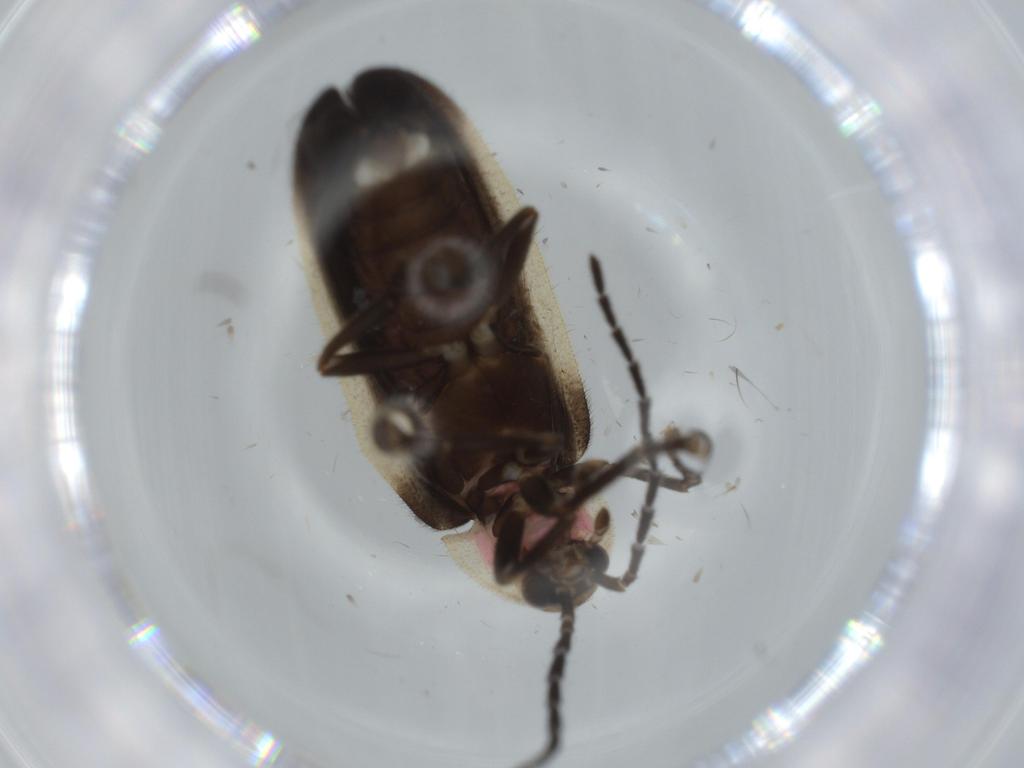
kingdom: Animalia
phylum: Arthropoda
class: Insecta
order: Coleoptera
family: Lampyridae
